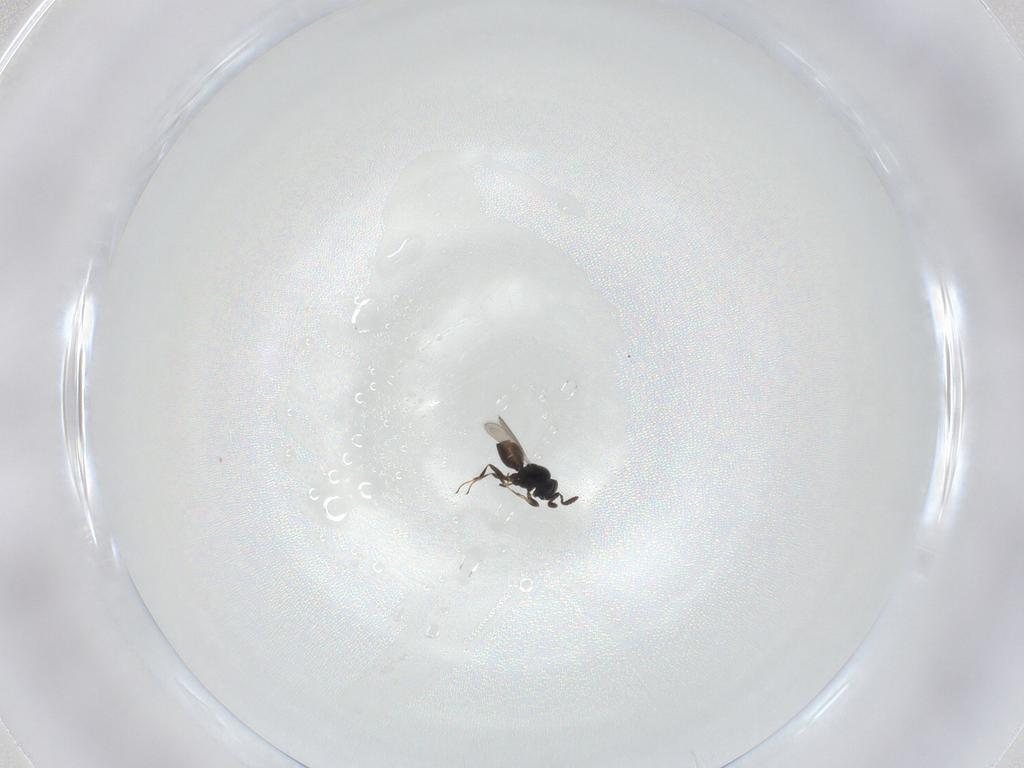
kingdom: Animalia
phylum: Arthropoda
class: Insecta
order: Hymenoptera
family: Scelionidae
